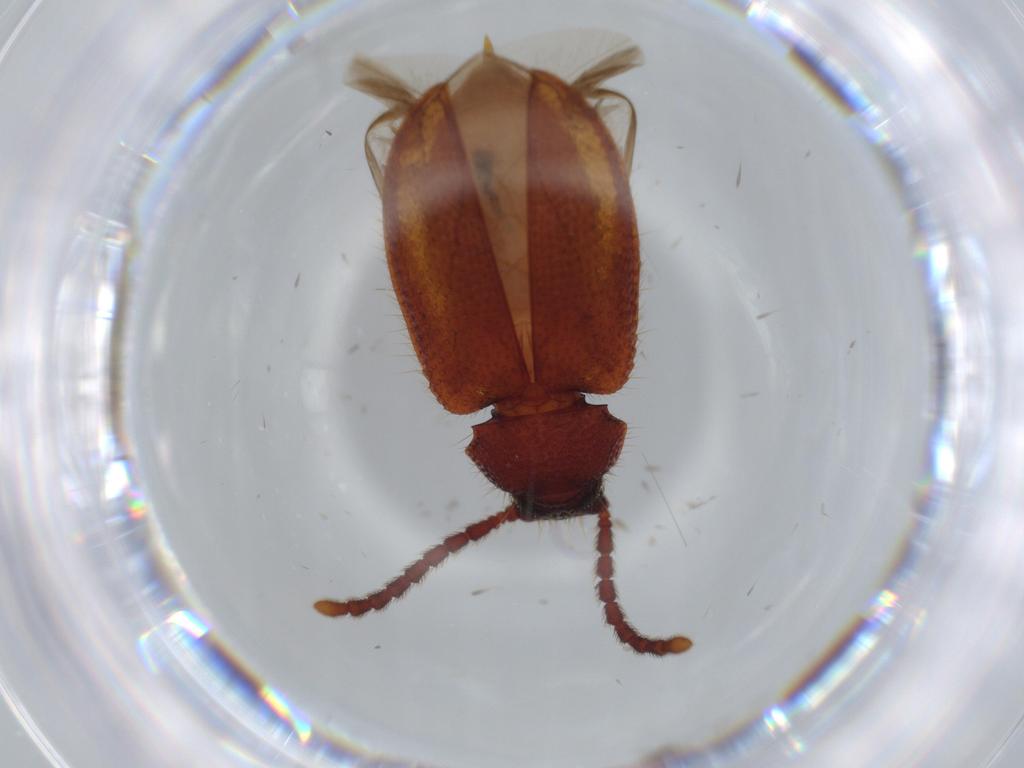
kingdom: Animalia
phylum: Arthropoda
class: Insecta
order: Coleoptera
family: Tenebrionidae
